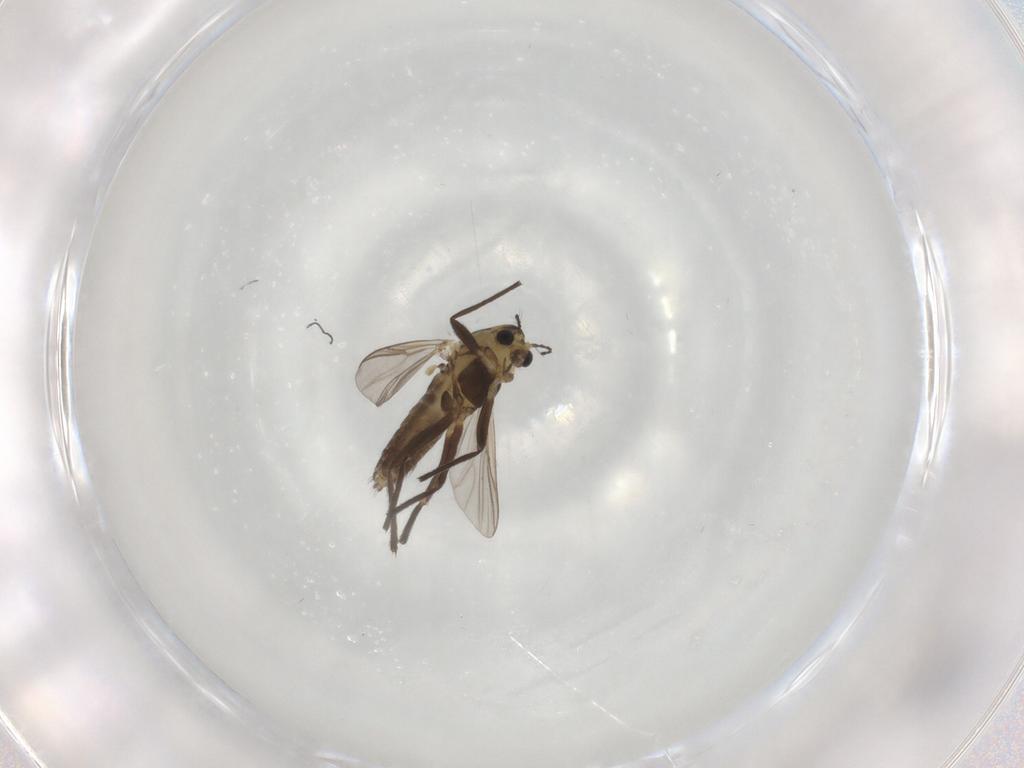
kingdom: Animalia
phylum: Arthropoda
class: Insecta
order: Diptera
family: Chironomidae
